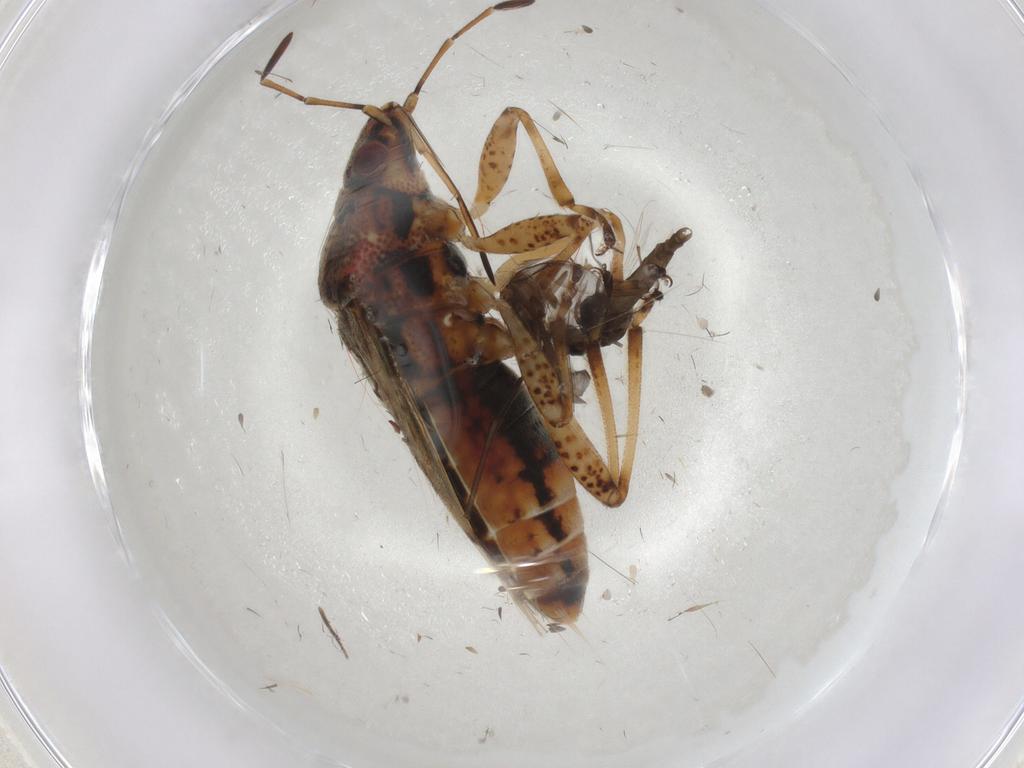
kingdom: Animalia
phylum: Arthropoda
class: Insecta
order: Diptera
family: Chironomidae
